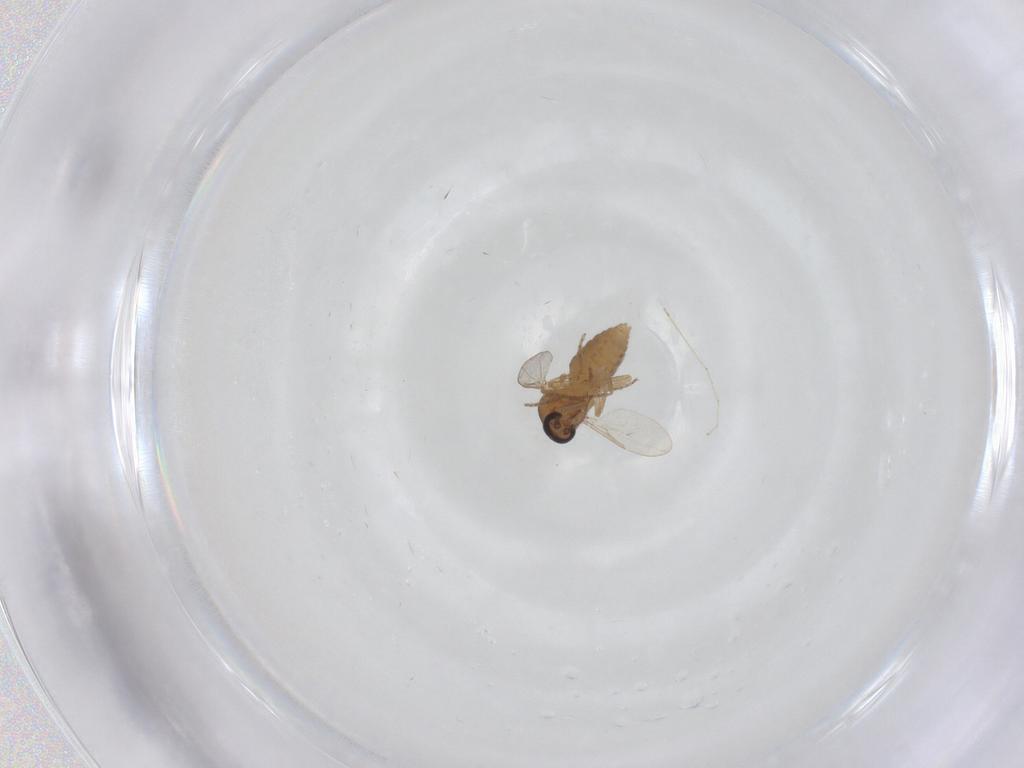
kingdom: Animalia
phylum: Arthropoda
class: Insecta
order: Diptera
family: Ceratopogonidae
